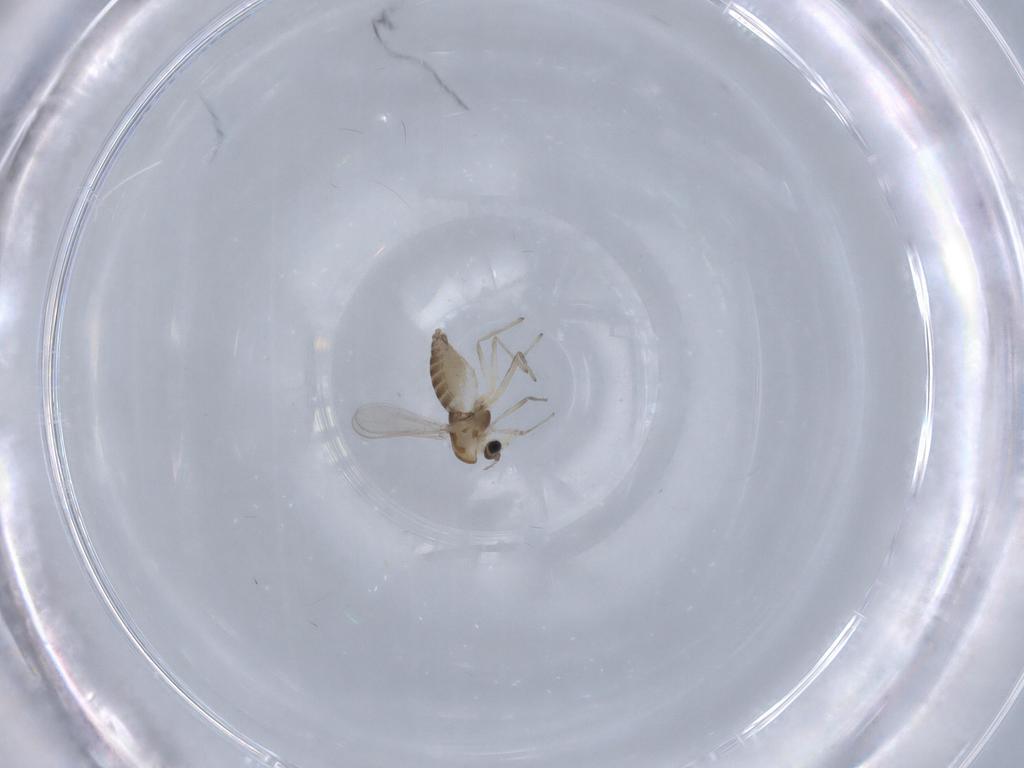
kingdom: Animalia
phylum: Arthropoda
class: Insecta
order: Diptera
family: Chironomidae
